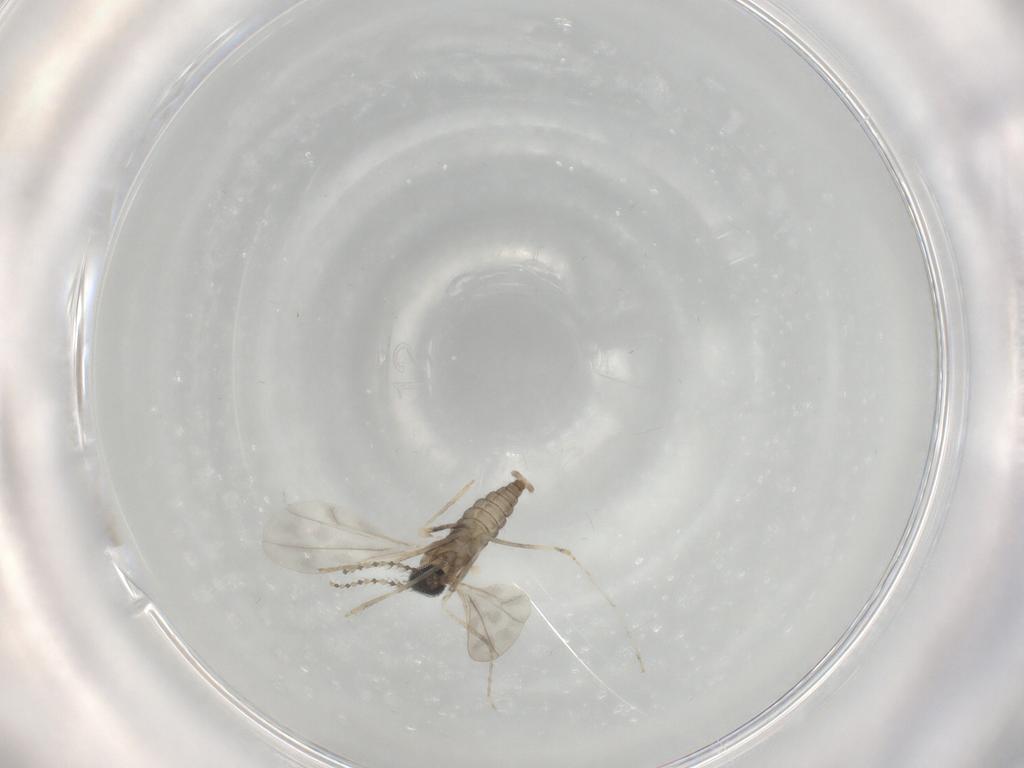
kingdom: Animalia
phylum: Arthropoda
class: Insecta
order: Diptera
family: Cecidomyiidae
